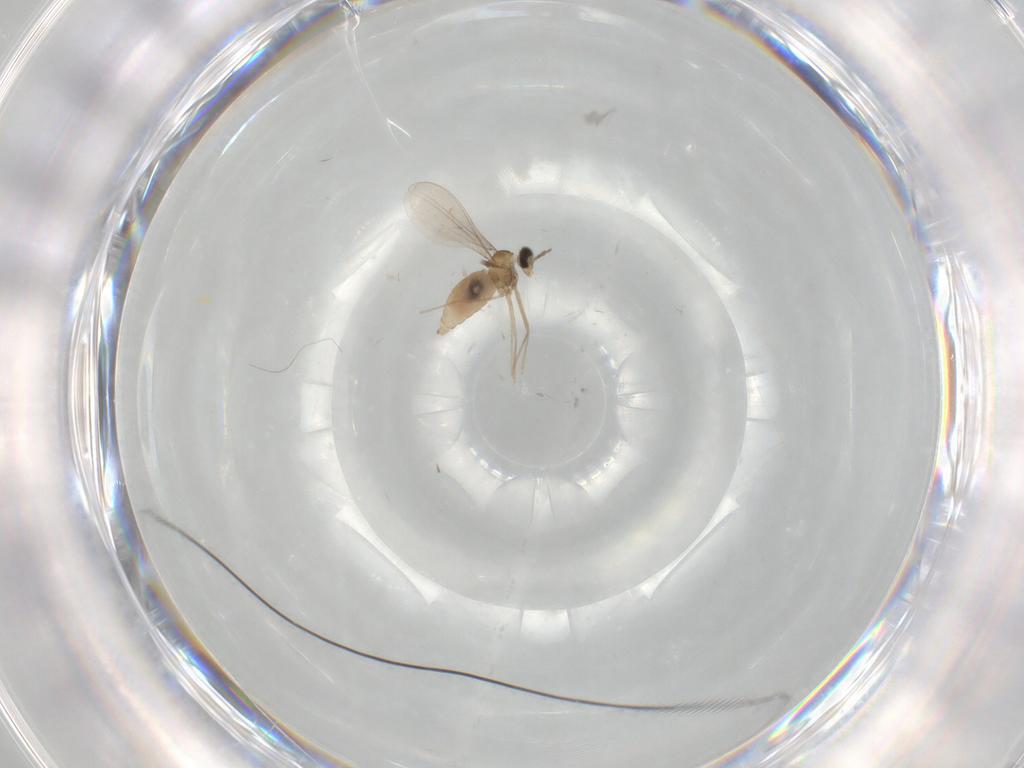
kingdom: Animalia
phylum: Arthropoda
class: Insecta
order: Diptera
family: Cecidomyiidae
